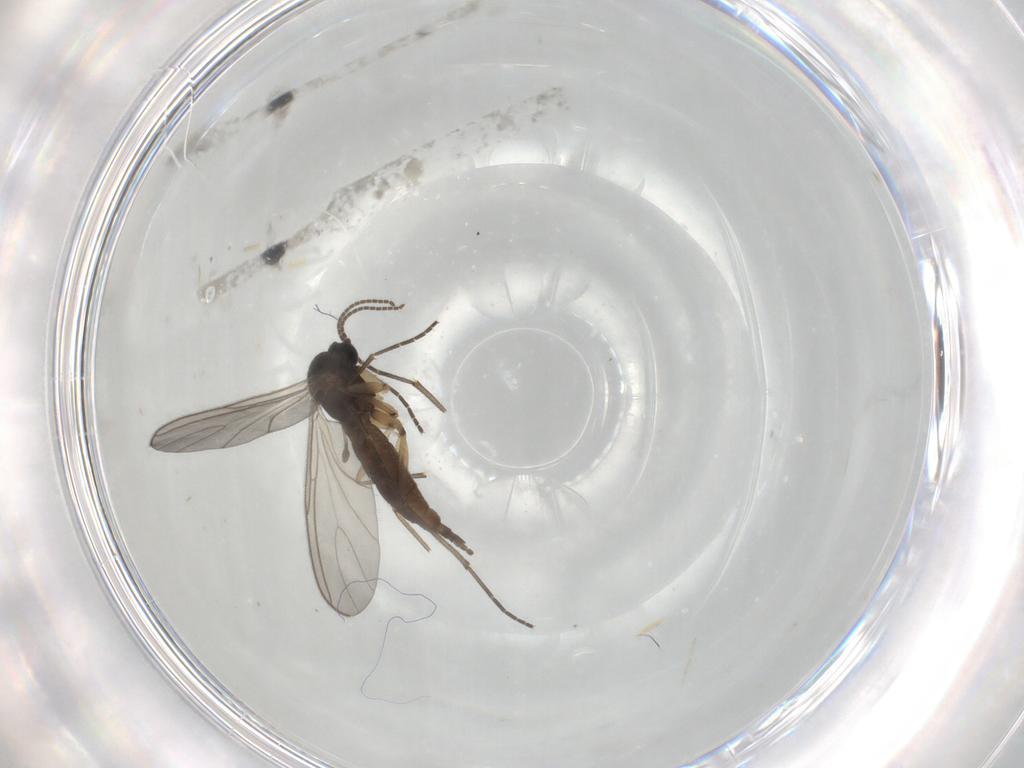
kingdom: Animalia
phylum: Arthropoda
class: Insecta
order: Diptera
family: Sciaridae
